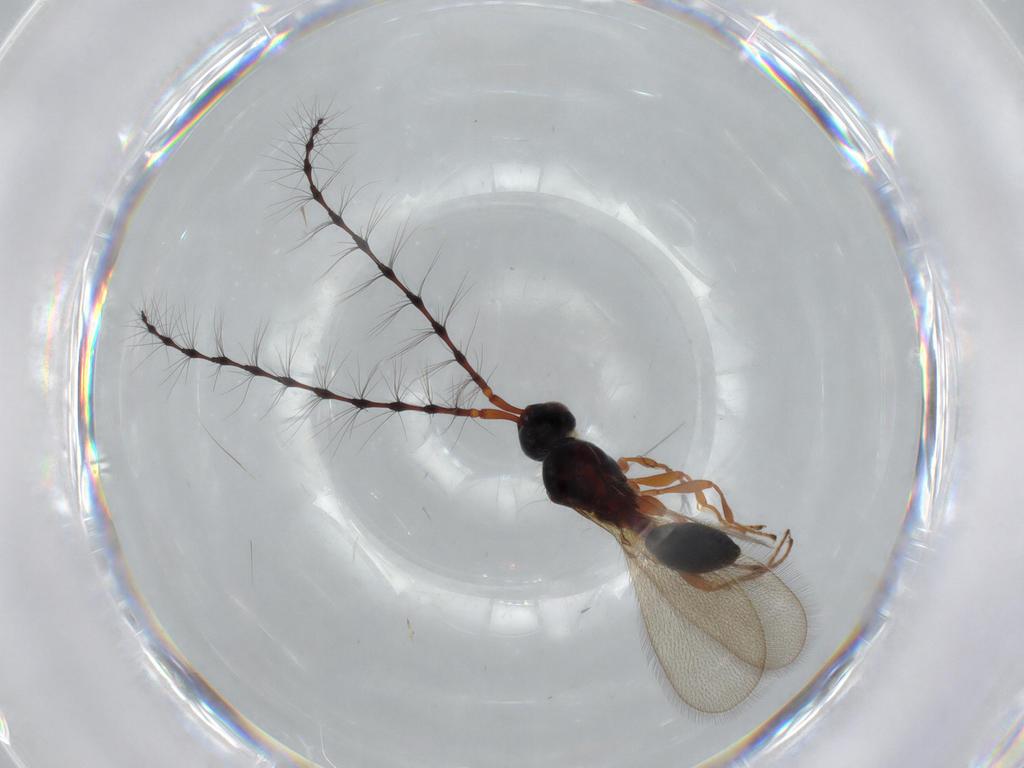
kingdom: Animalia
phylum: Arthropoda
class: Insecta
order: Hymenoptera
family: Diapriidae
